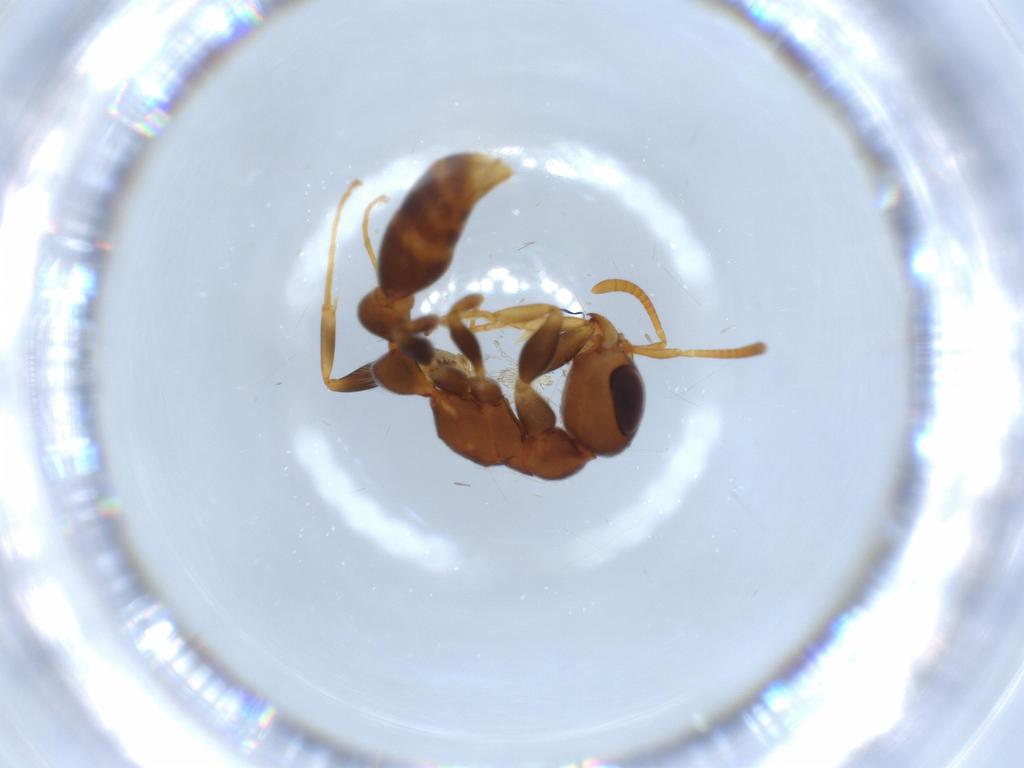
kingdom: Animalia
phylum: Arthropoda
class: Insecta
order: Hymenoptera
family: Formicidae
